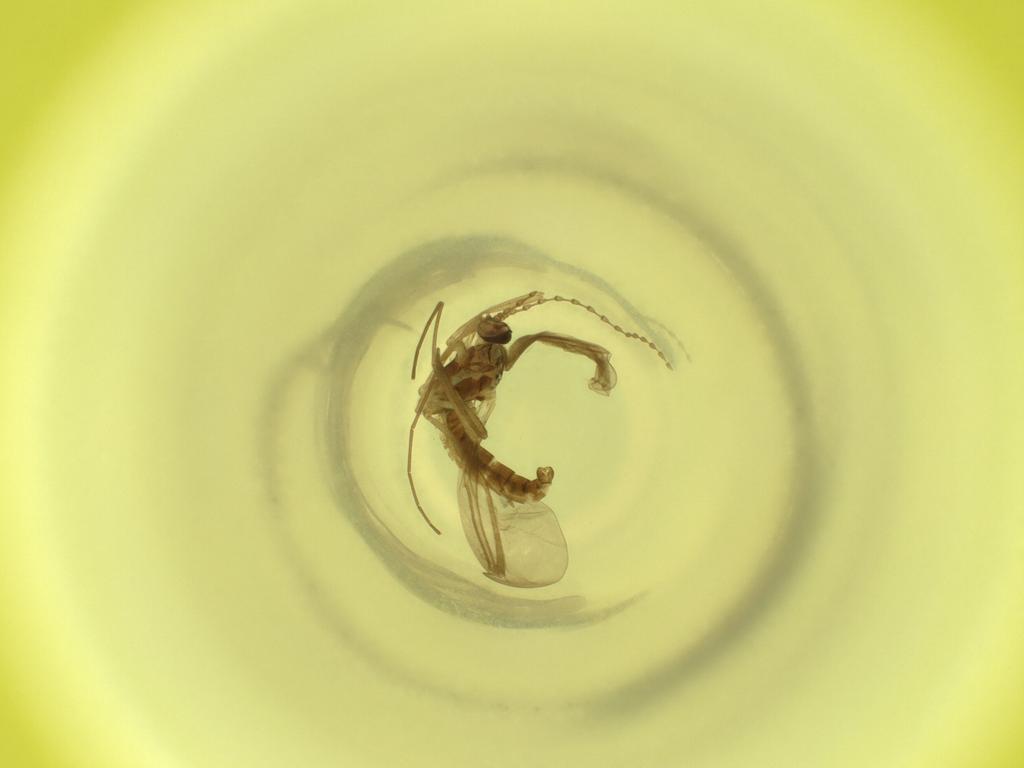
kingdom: Animalia
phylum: Arthropoda
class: Insecta
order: Diptera
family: Cecidomyiidae
